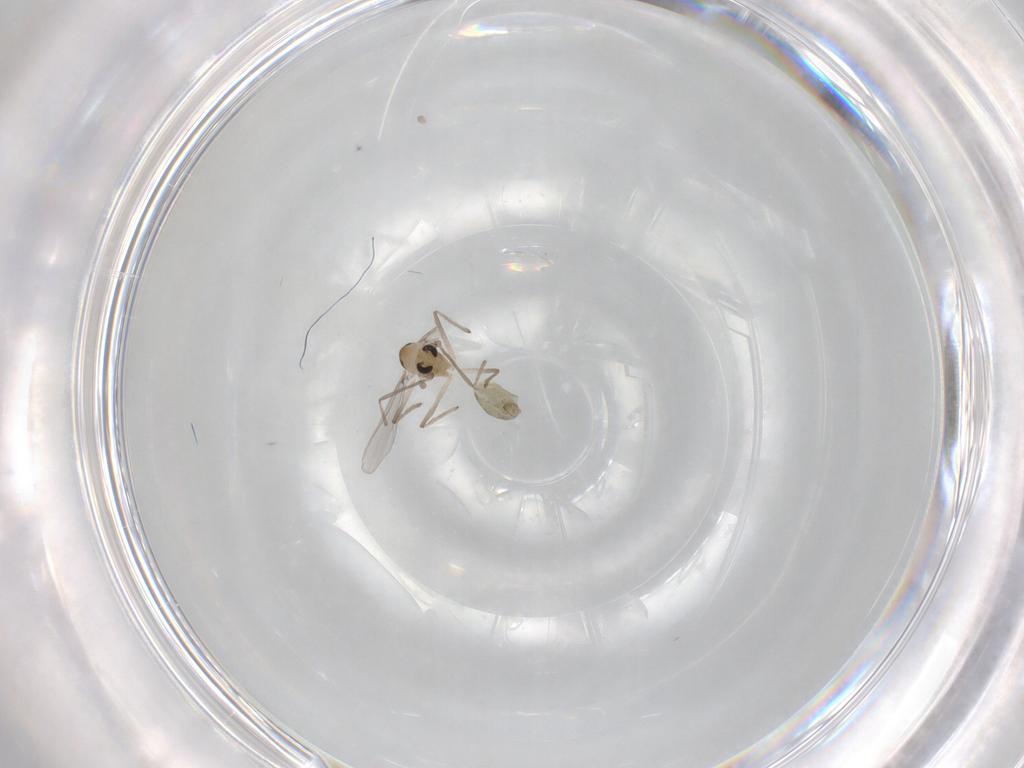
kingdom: Animalia
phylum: Arthropoda
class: Insecta
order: Diptera
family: Chironomidae
